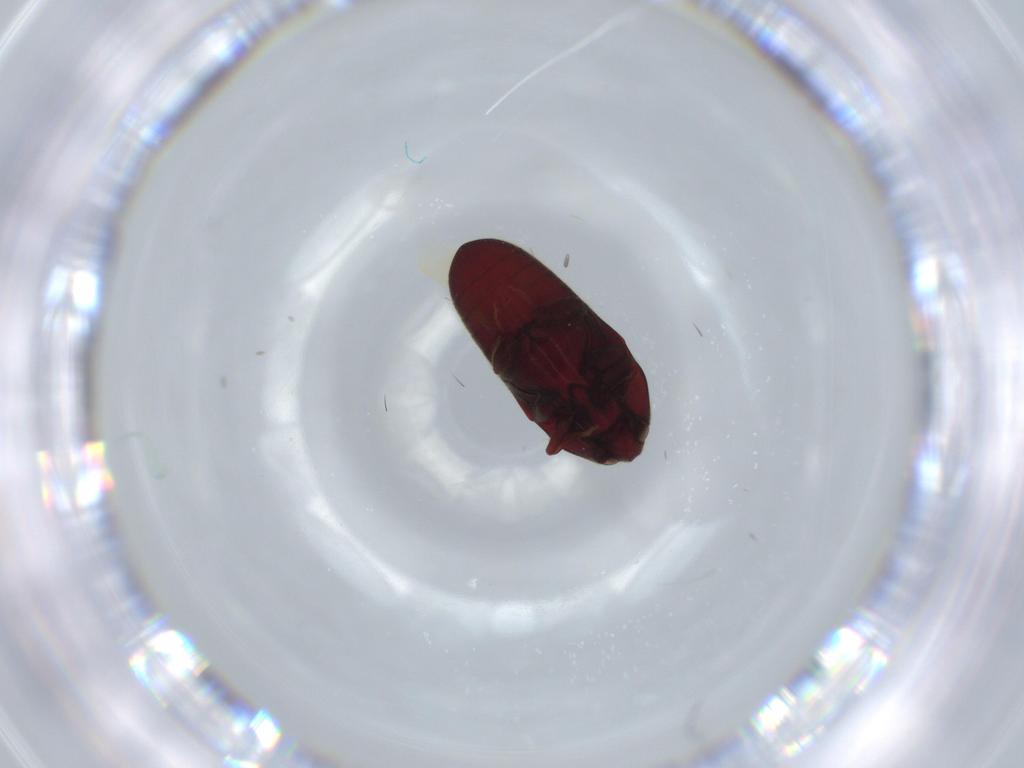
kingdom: Animalia
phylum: Arthropoda
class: Insecta
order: Coleoptera
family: Throscidae
